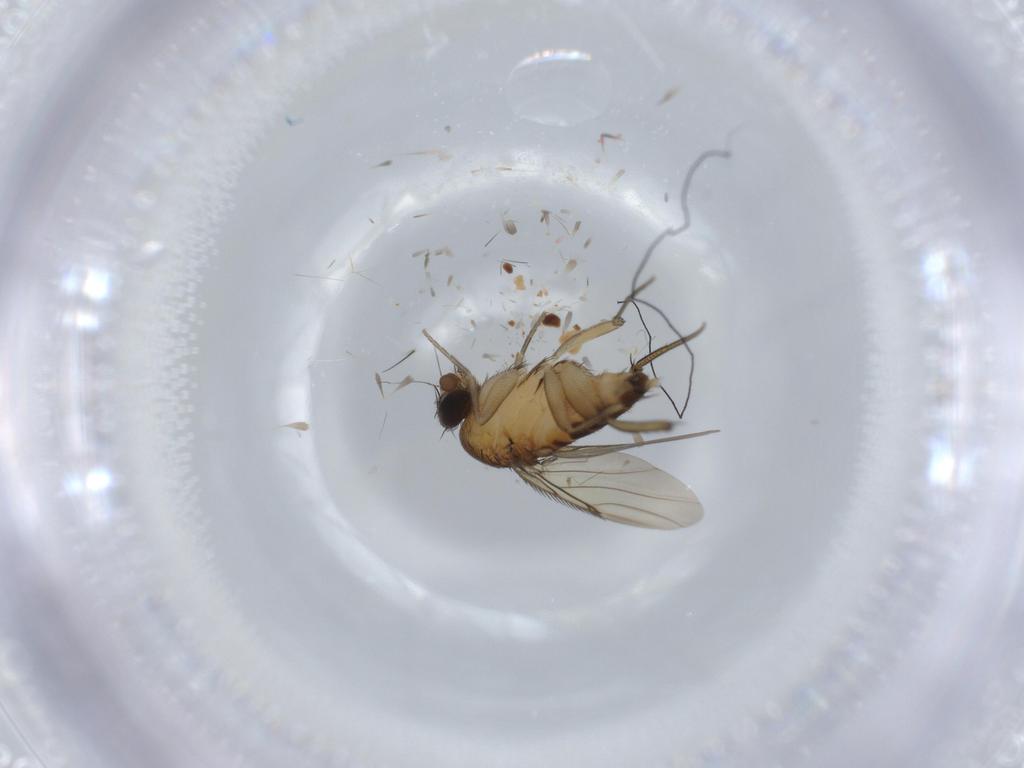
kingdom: Animalia
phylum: Arthropoda
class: Insecta
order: Diptera
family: Phoridae
